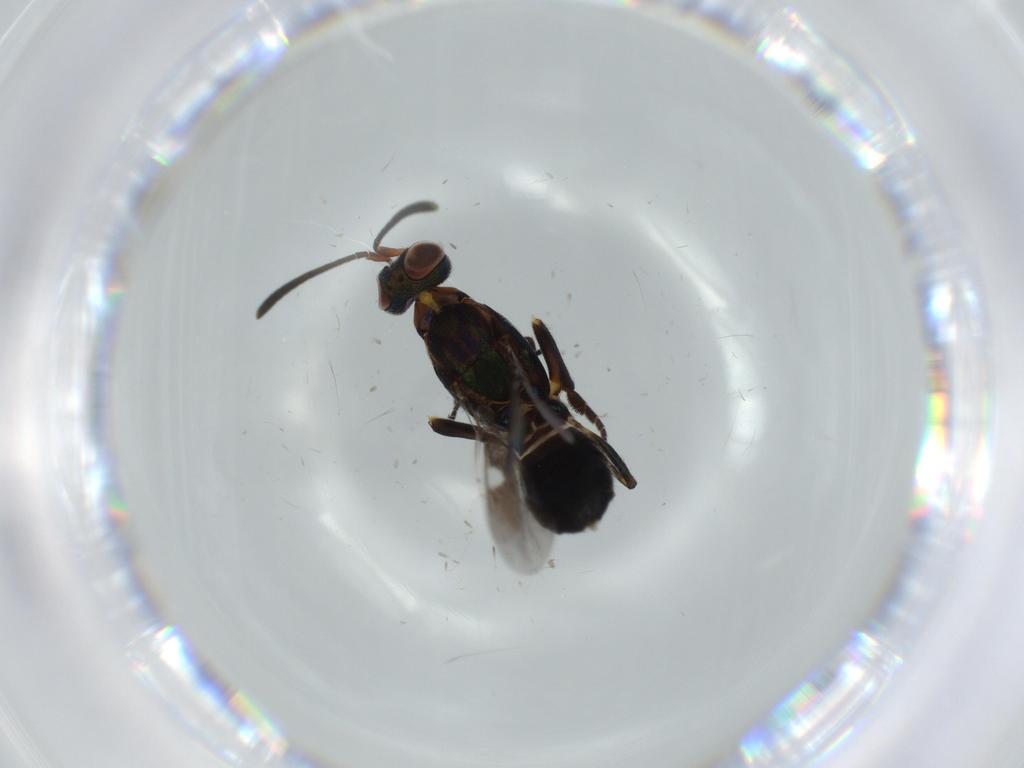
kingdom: Animalia
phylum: Arthropoda
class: Insecta
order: Hymenoptera
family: Eupelmidae
